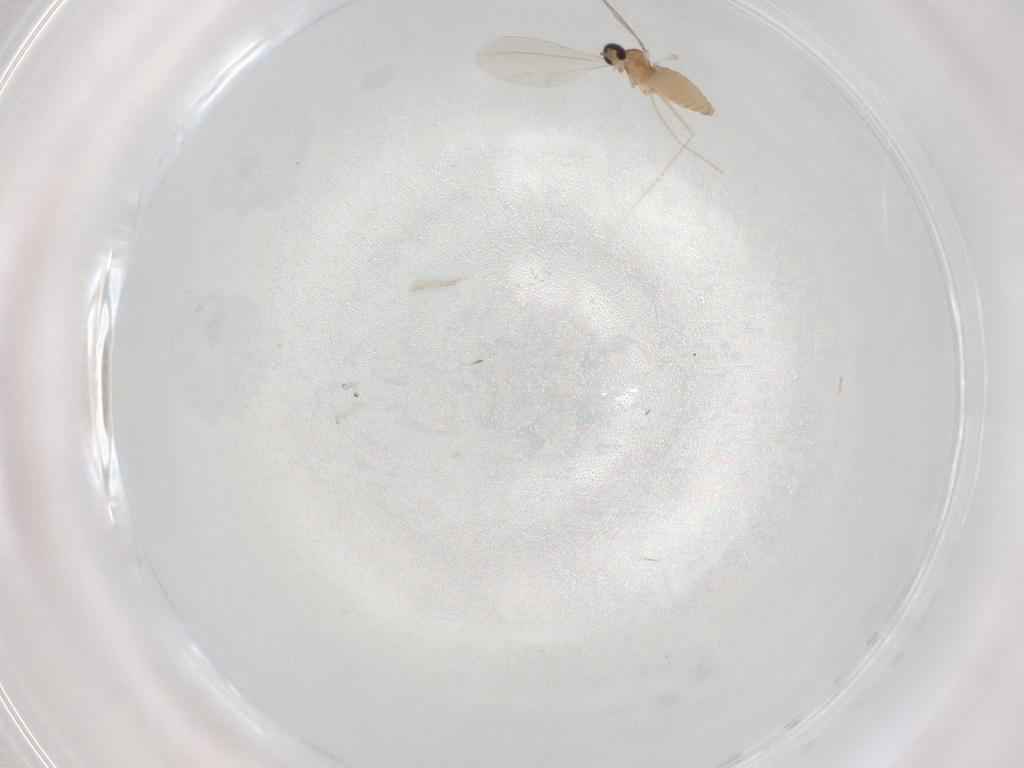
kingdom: Animalia
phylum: Arthropoda
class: Insecta
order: Diptera
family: Cecidomyiidae
